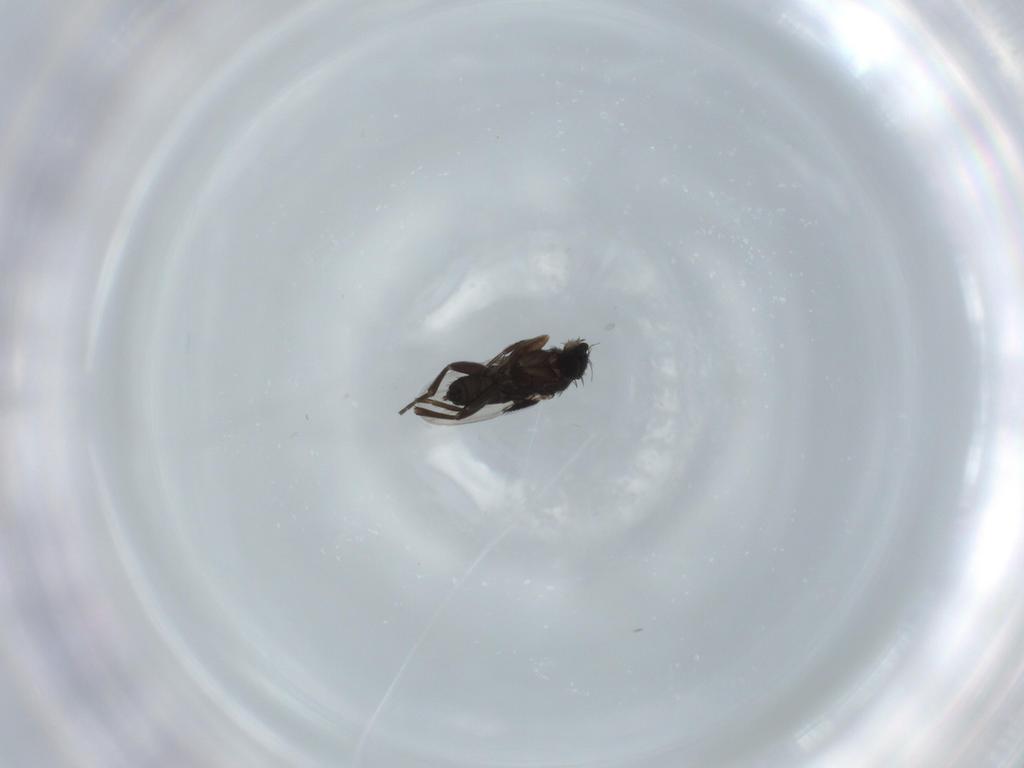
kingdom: Animalia
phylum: Arthropoda
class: Insecta
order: Diptera
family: Phoridae
